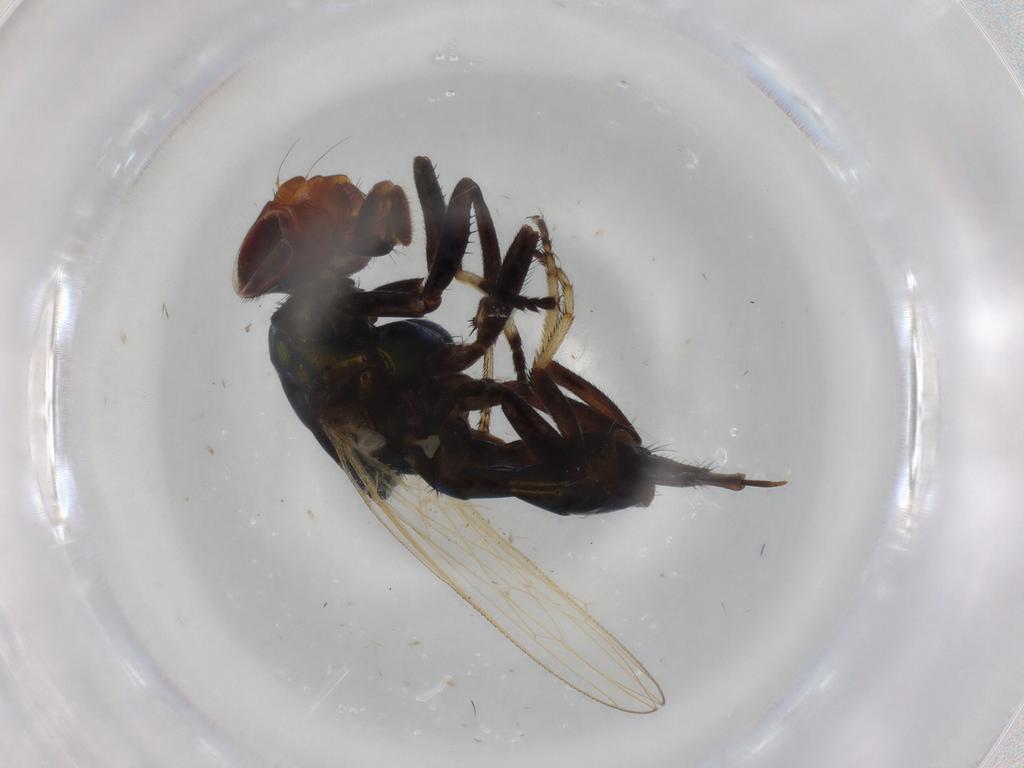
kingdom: Animalia
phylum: Arthropoda
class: Insecta
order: Diptera
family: Ulidiidae
